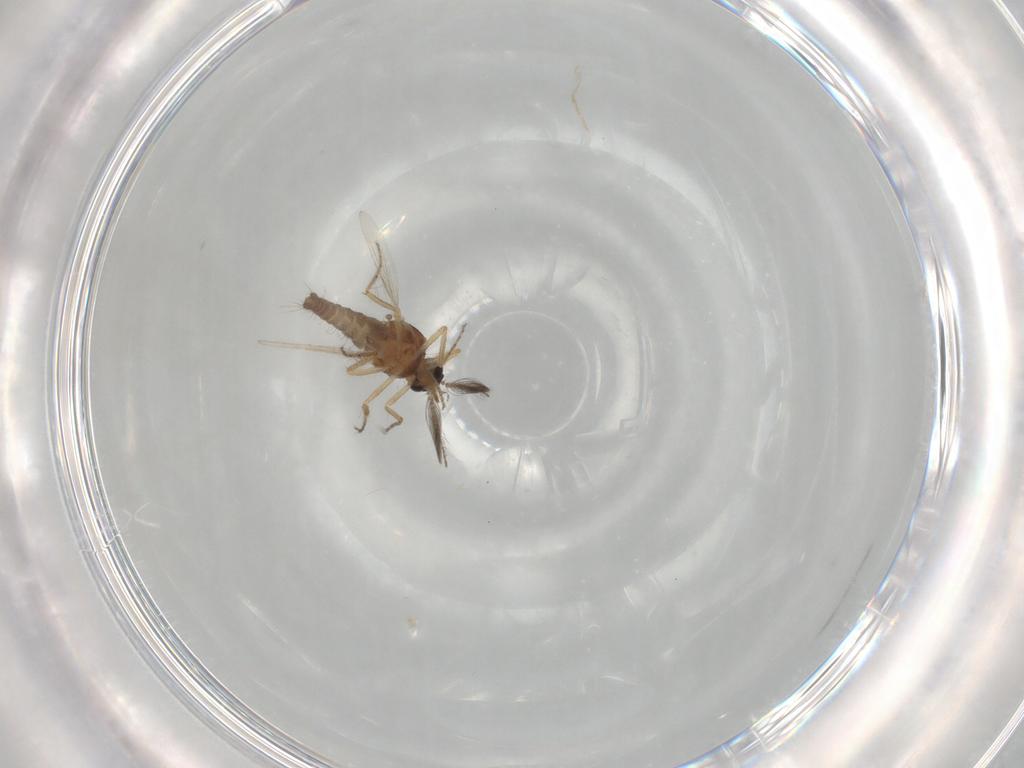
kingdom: Animalia
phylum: Arthropoda
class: Insecta
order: Diptera
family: Ceratopogonidae
